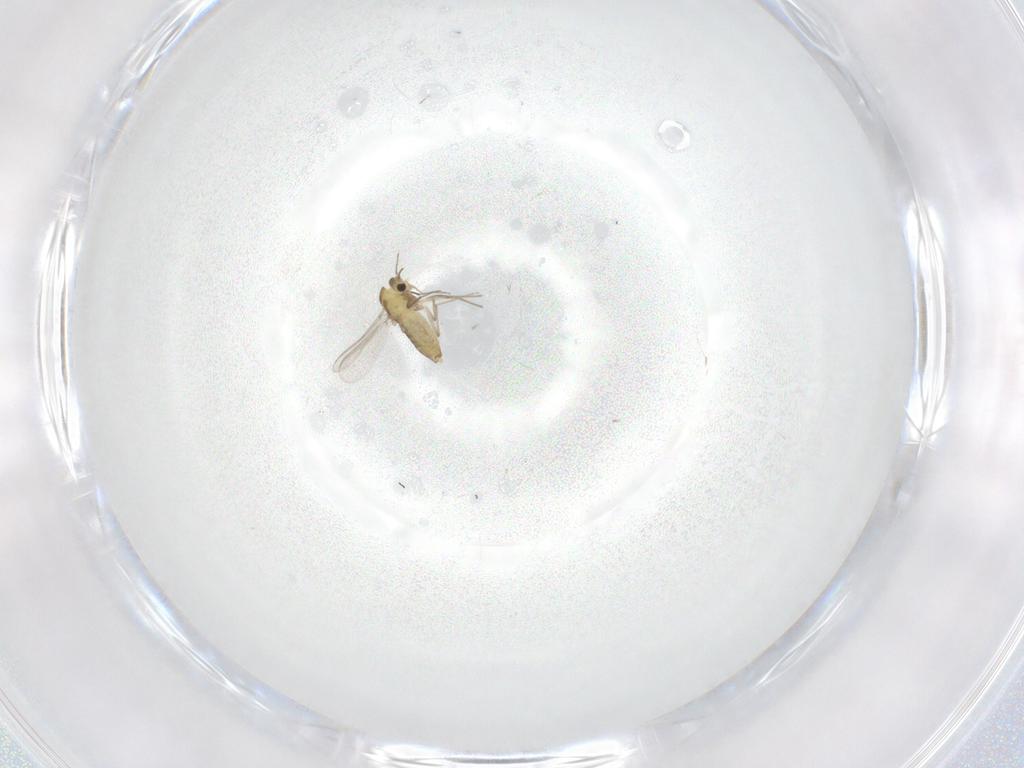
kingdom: Animalia
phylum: Arthropoda
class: Insecta
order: Diptera
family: Chironomidae
